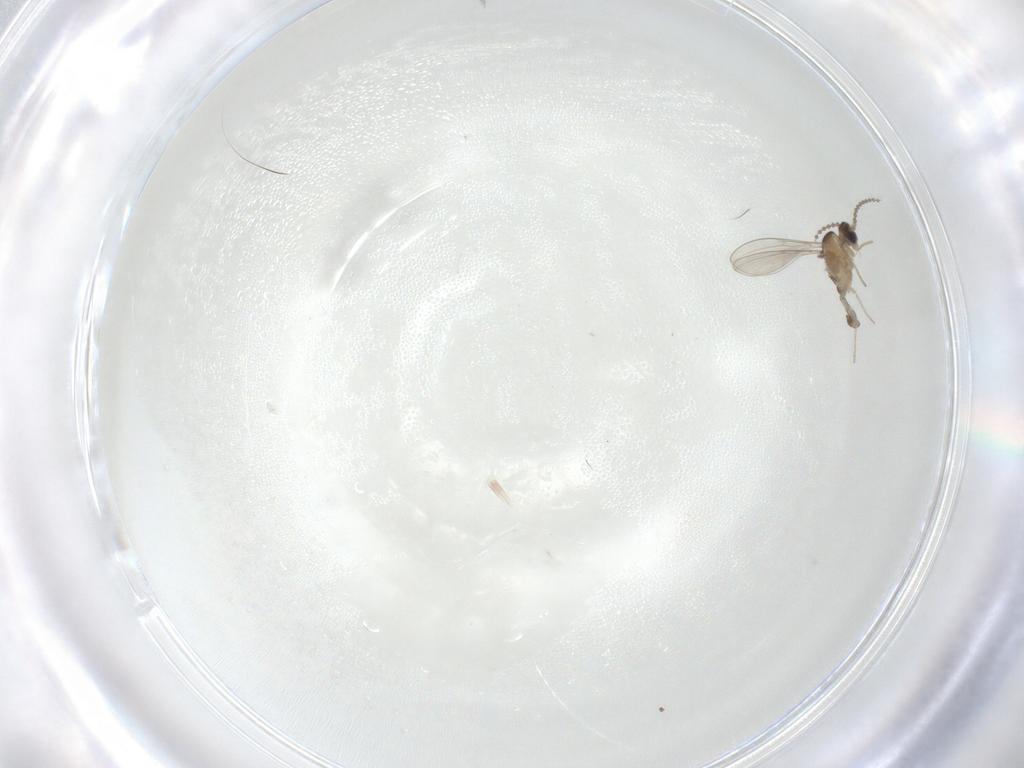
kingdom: Animalia
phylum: Arthropoda
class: Insecta
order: Diptera
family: Cecidomyiidae
